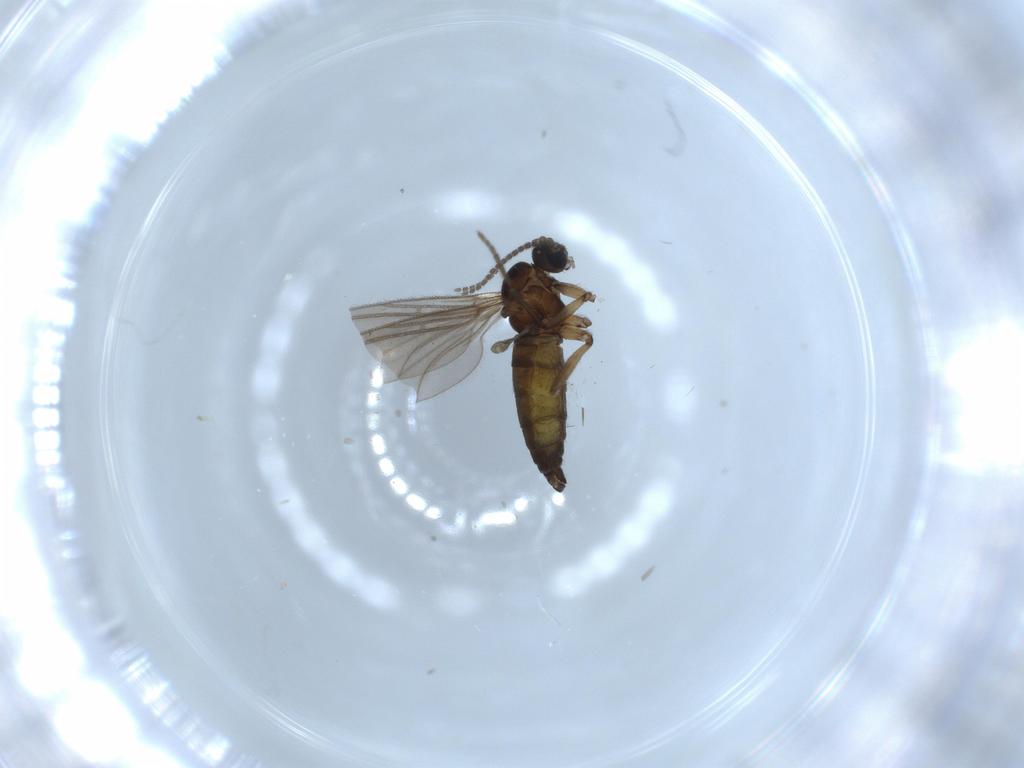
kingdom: Animalia
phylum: Arthropoda
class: Insecta
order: Diptera
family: Sciaridae
